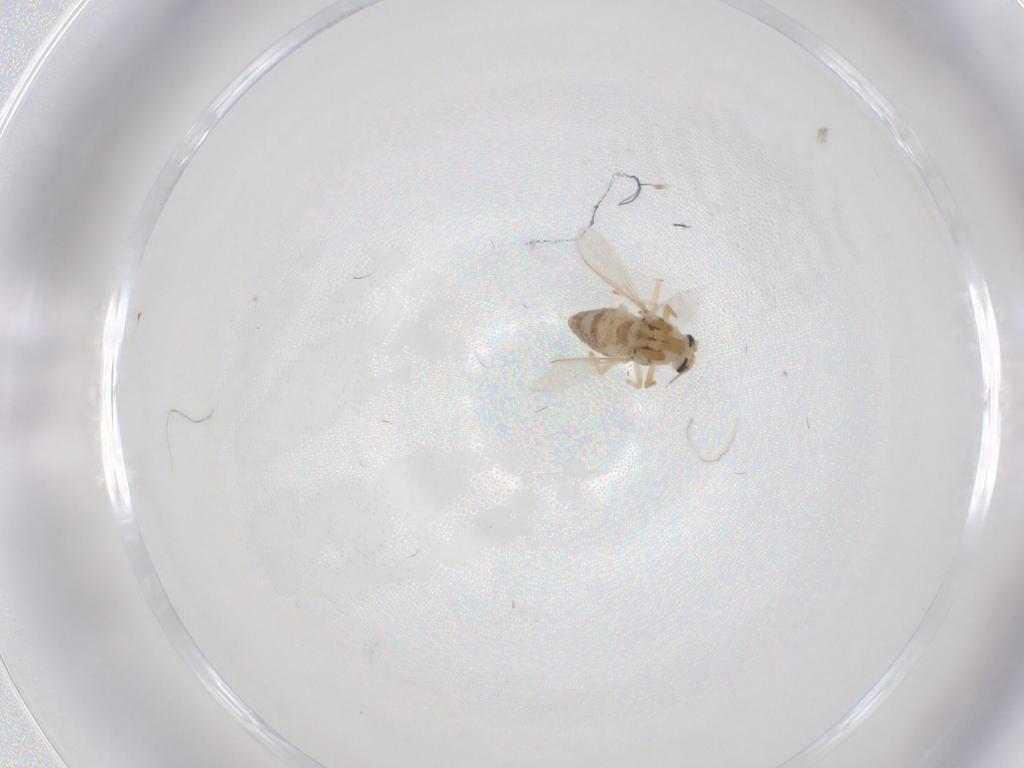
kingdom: Animalia
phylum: Arthropoda
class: Insecta
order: Diptera
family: Chironomidae
